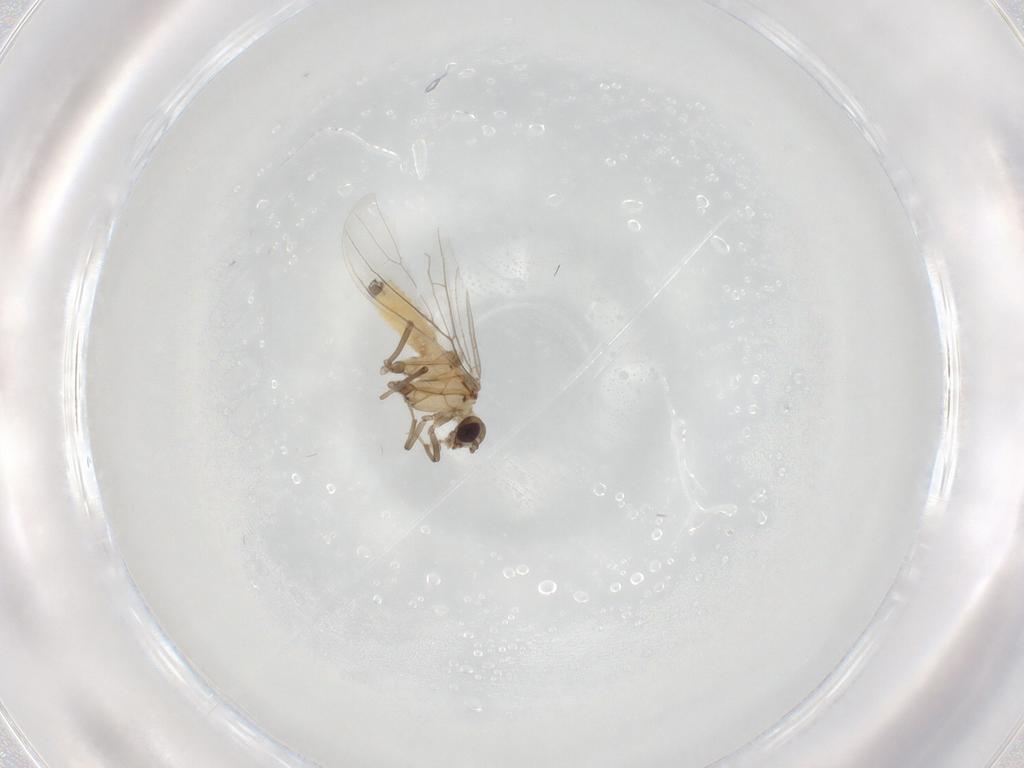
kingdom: Animalia
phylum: Arthropoda
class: Insecta
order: Neuroptera
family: Coniopterygidae
